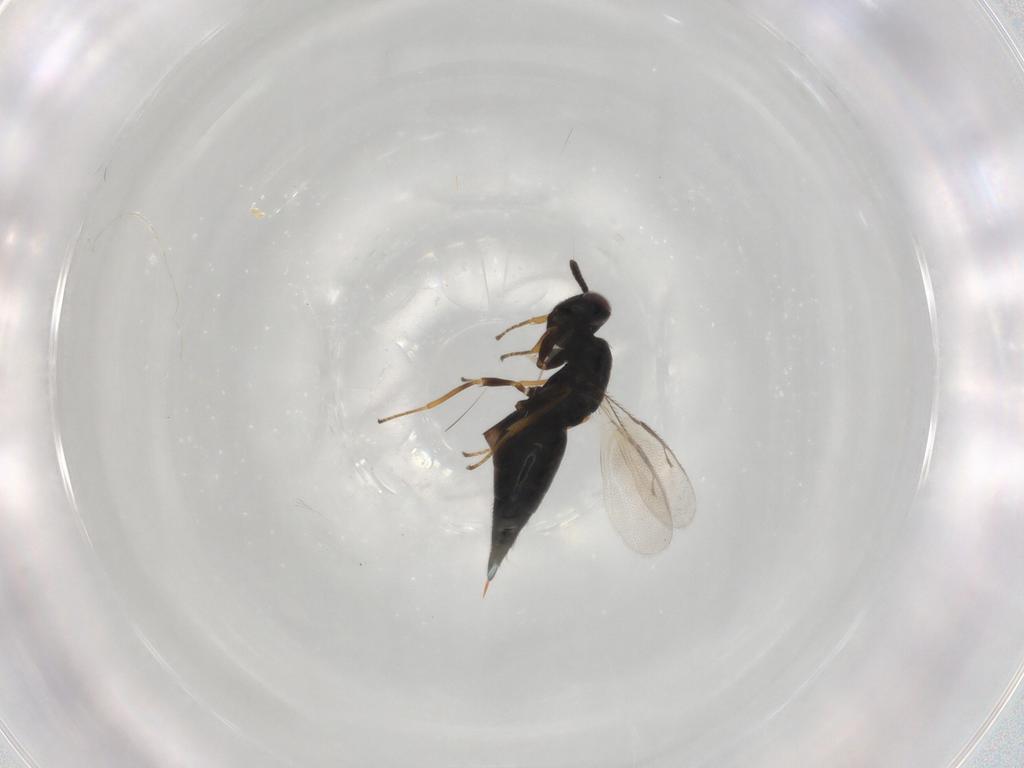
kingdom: Animalia
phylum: Arthropoda
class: Insecta
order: Hymenoptera
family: Pteromalidae
